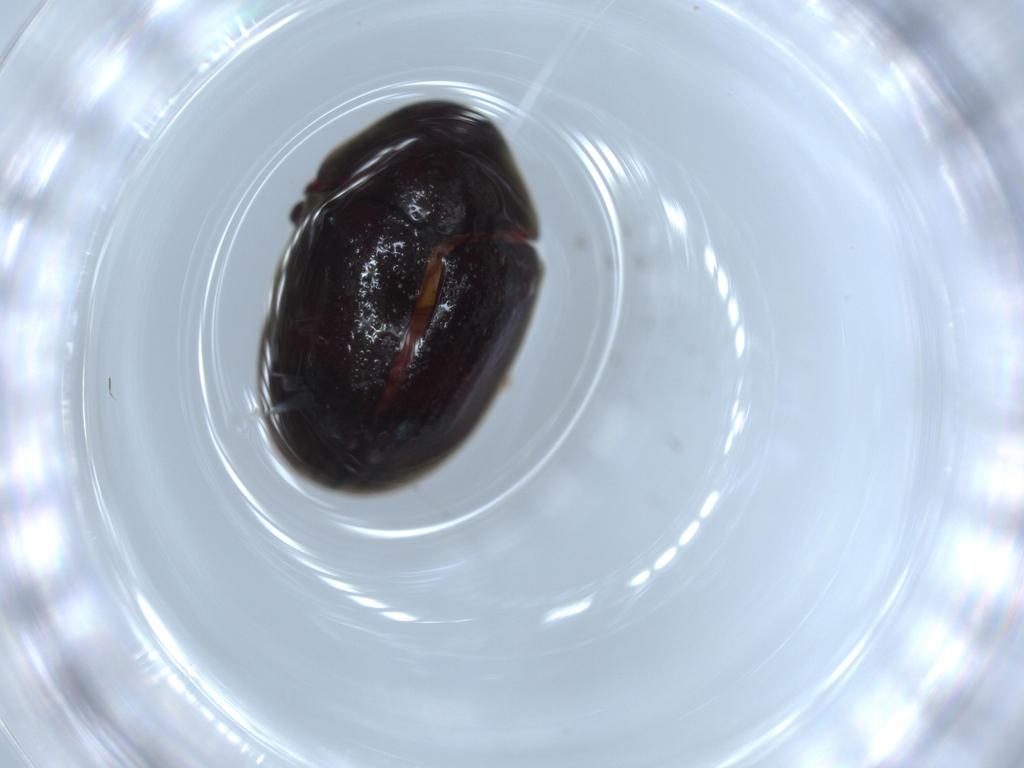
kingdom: Animalia
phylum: Arthropoda
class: Insecta
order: Coleoptera
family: Ptinidae
